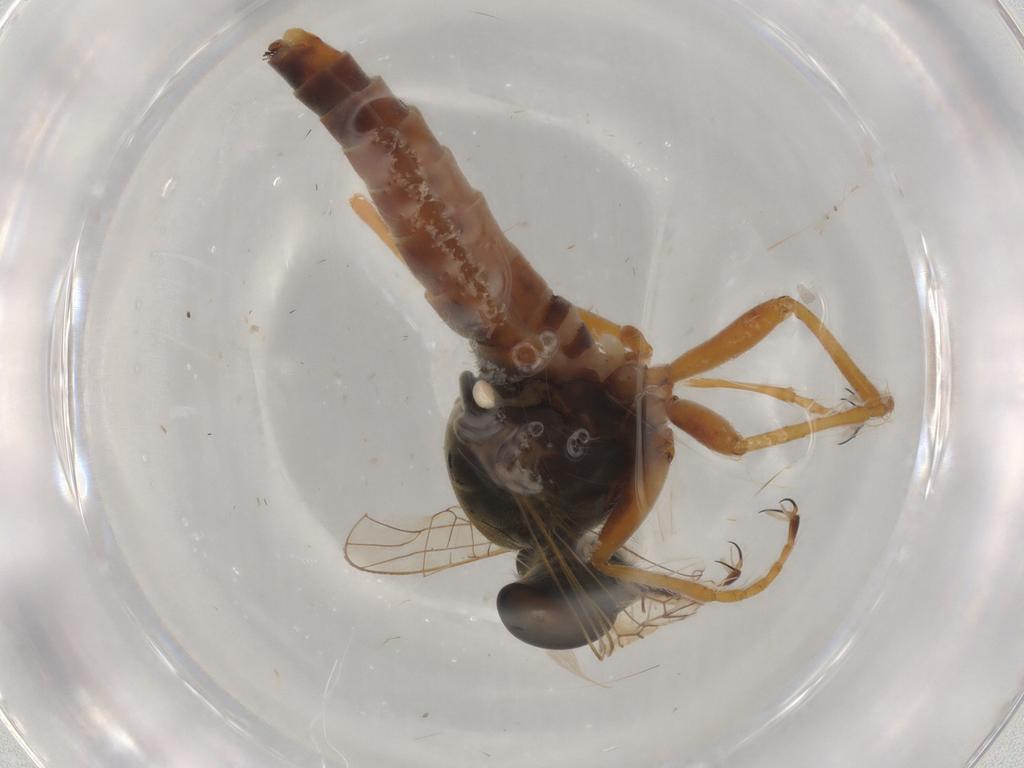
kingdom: Animalia
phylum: Arthropoda
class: Insecta
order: Diptera
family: Muscidae
